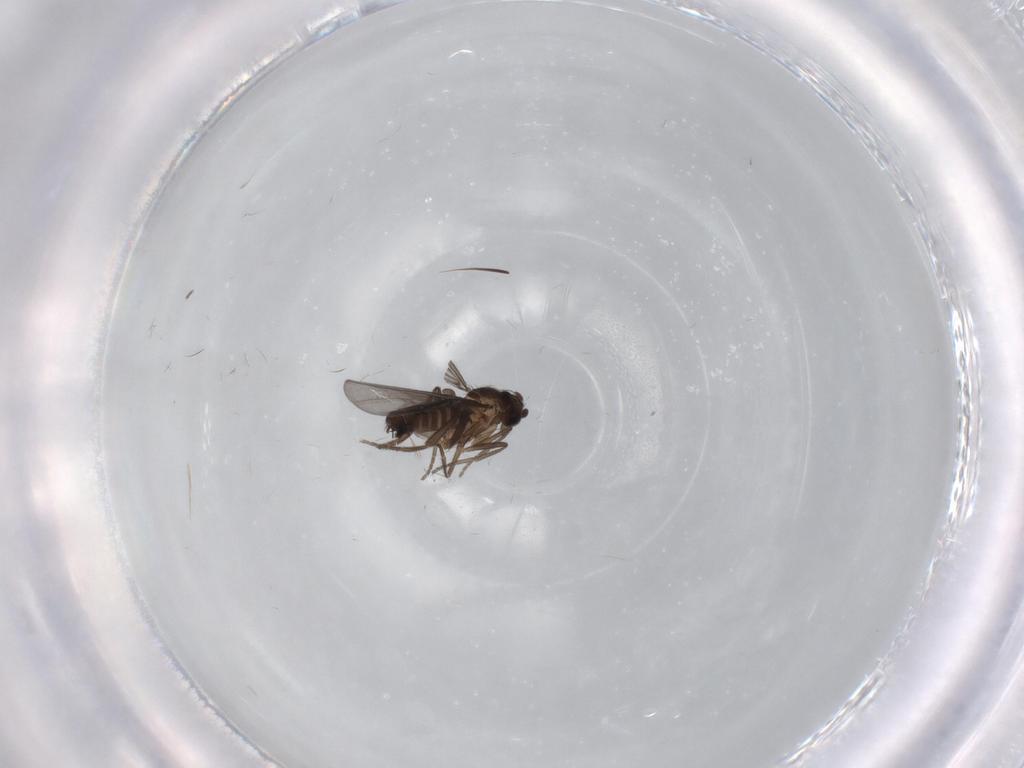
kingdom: Animalia
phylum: Arthropoda
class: Insecta
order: Diptera
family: Phoridae
